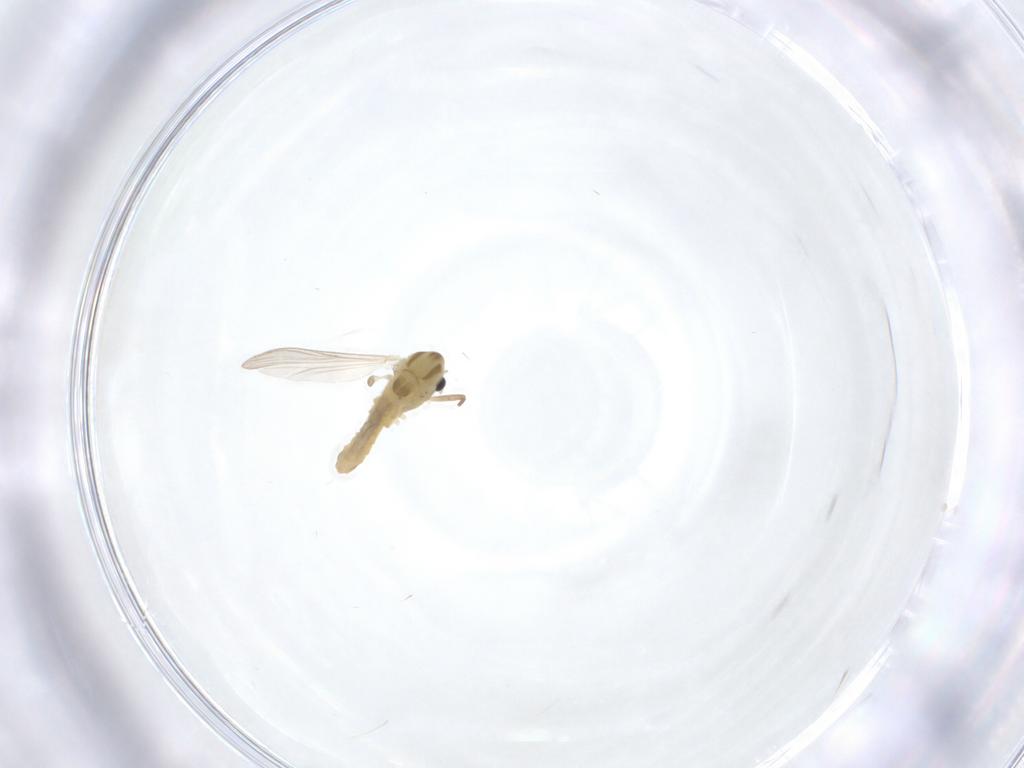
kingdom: Animalia
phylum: Arthropoda
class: Insecta
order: Diptera
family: Chironomidae
